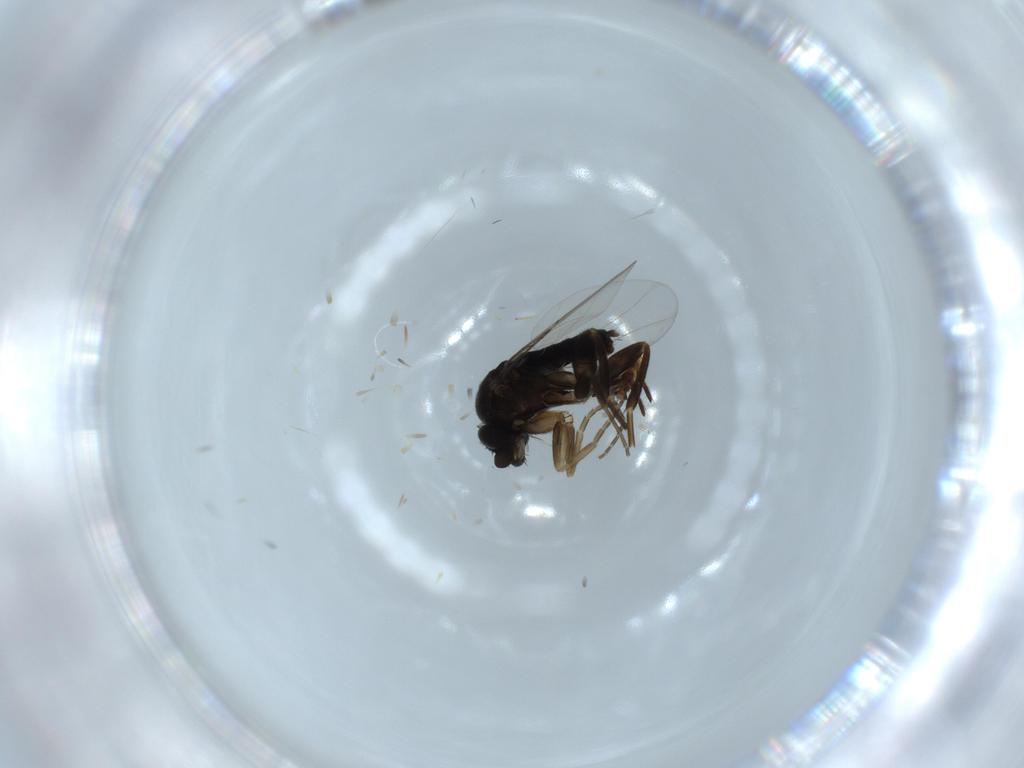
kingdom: Animalia
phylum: Arthropoda
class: Insecta
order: Diptera
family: Phoridae
